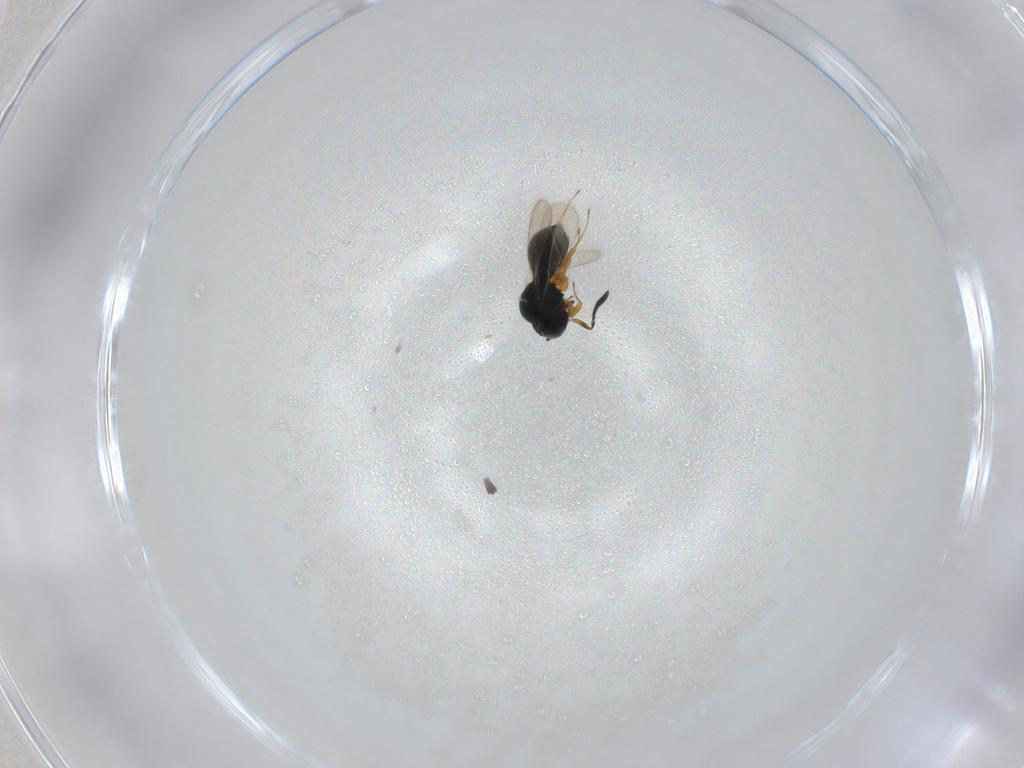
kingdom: Animalia
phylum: Arthropoda
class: Insecta
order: Hymenoptera
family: Scelionidae
